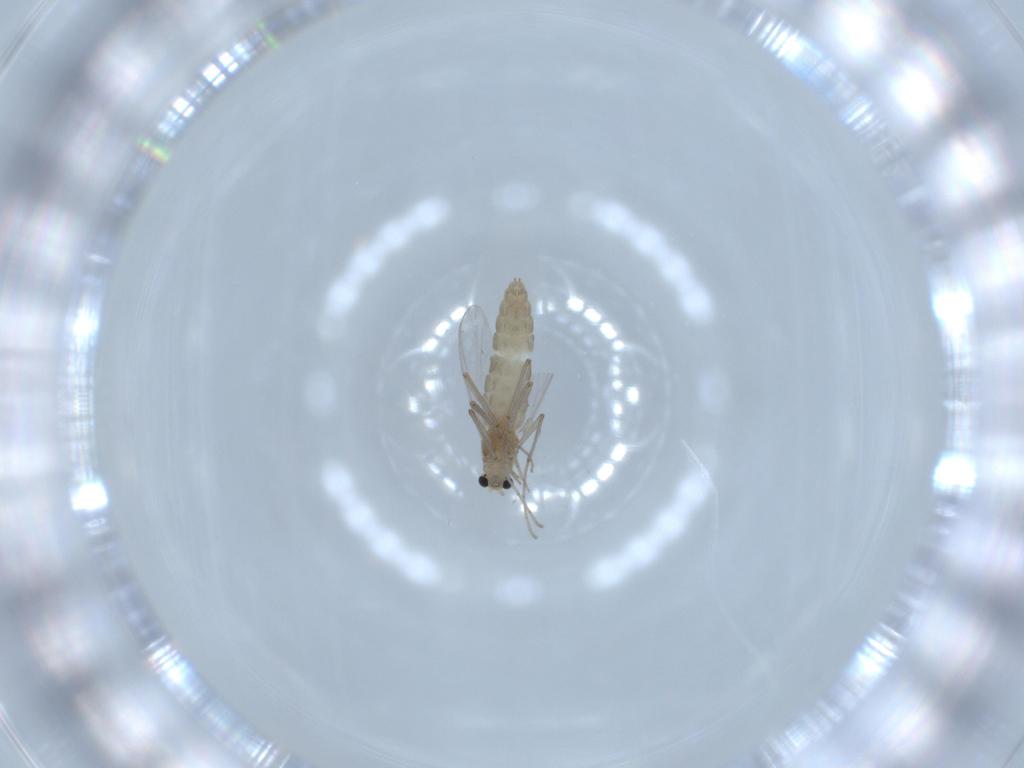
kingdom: Animalia
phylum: Arthropoda
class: Insecta
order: Diptera
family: Chironomidae
